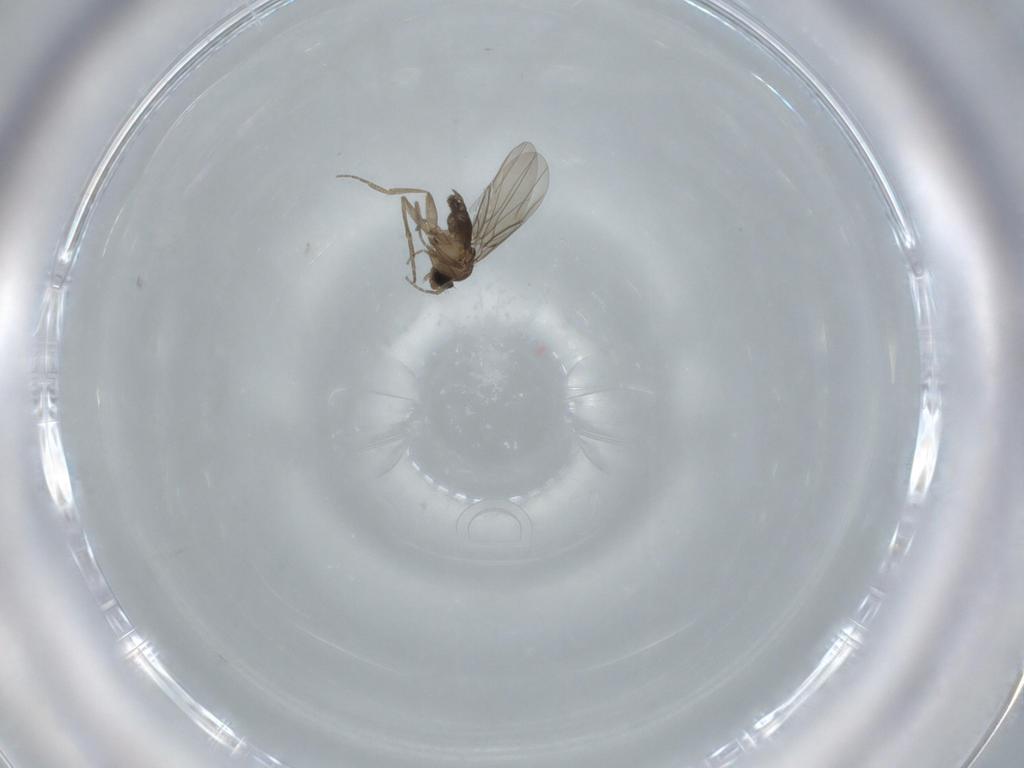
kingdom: Animalia
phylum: Arthropoda
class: Insecta
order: Diptera
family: Phoridae
